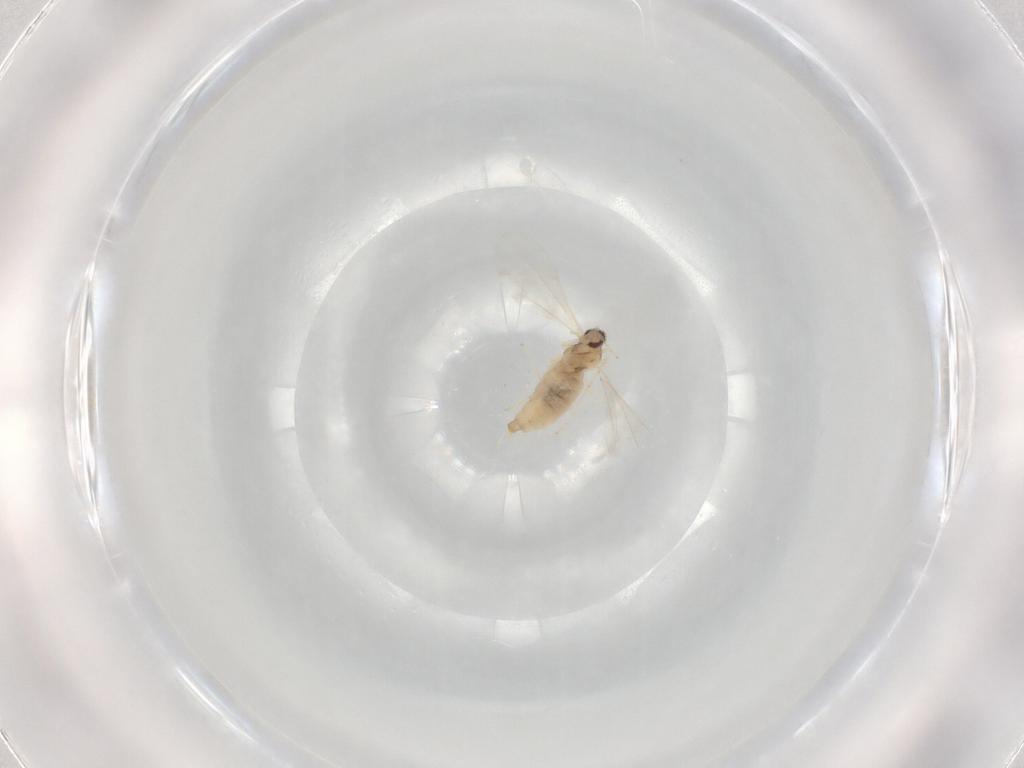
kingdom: Animalia
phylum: Arthropoda
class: Insecta
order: Diptera
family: Cecidomyiidae
